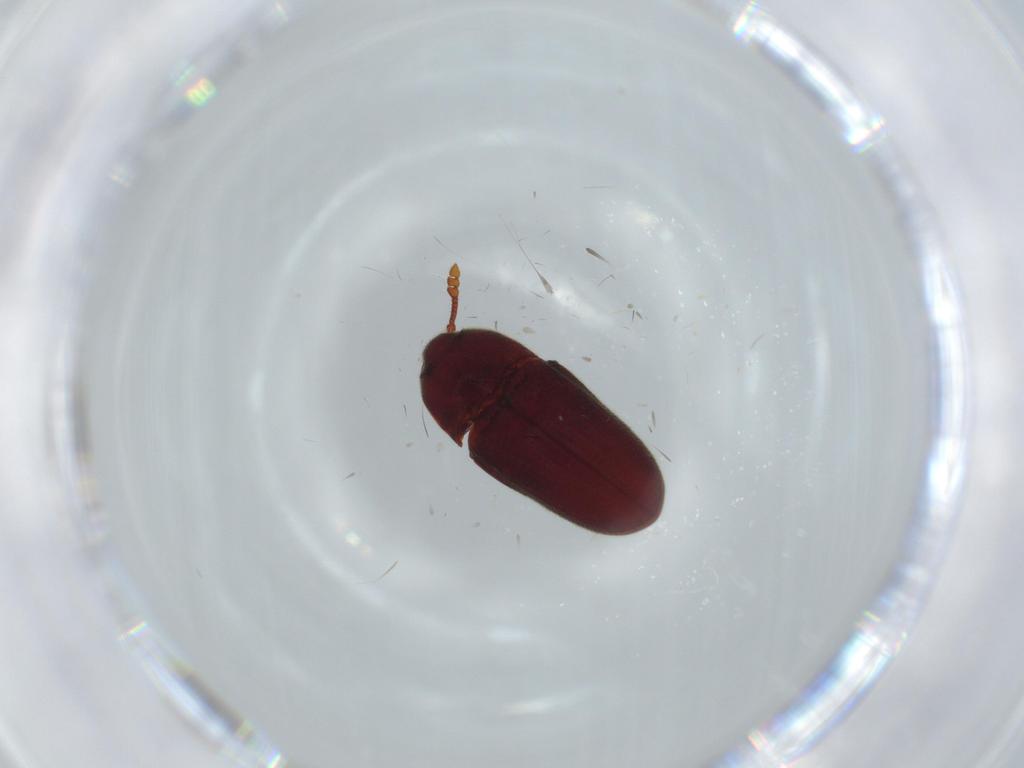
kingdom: Animalia
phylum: Arthropoda
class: Insecta
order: Coleoptera
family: Throscidae
